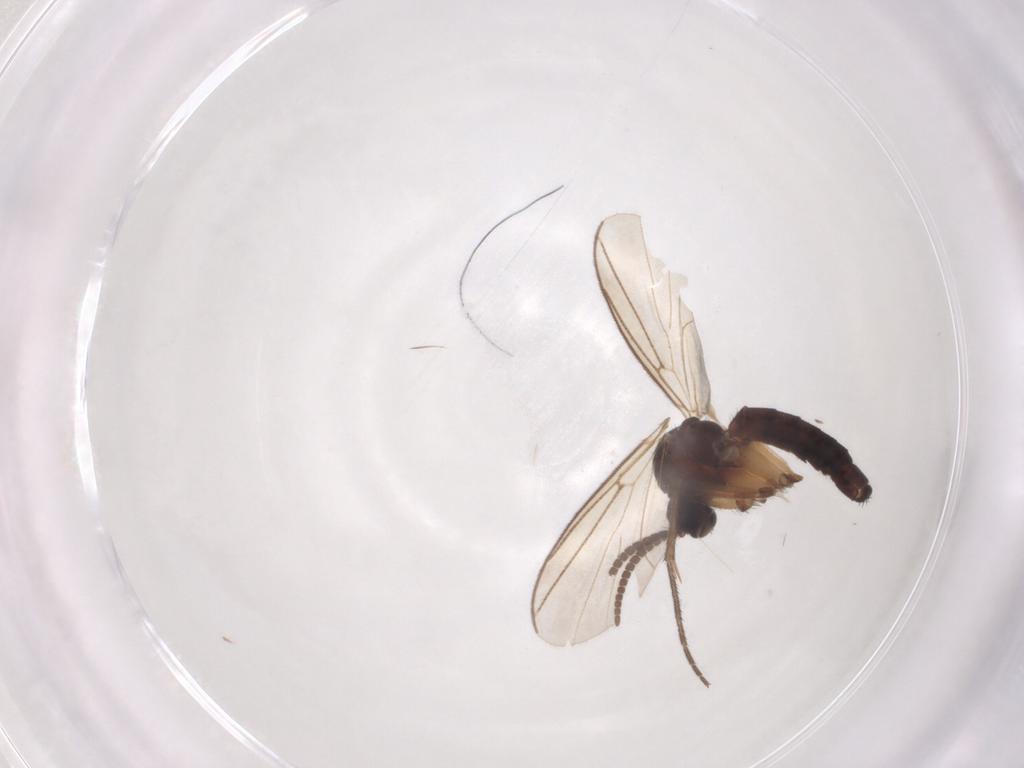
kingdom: Animalia
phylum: Arthropoda
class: Insecta
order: Diptera
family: Mycetophilidae
